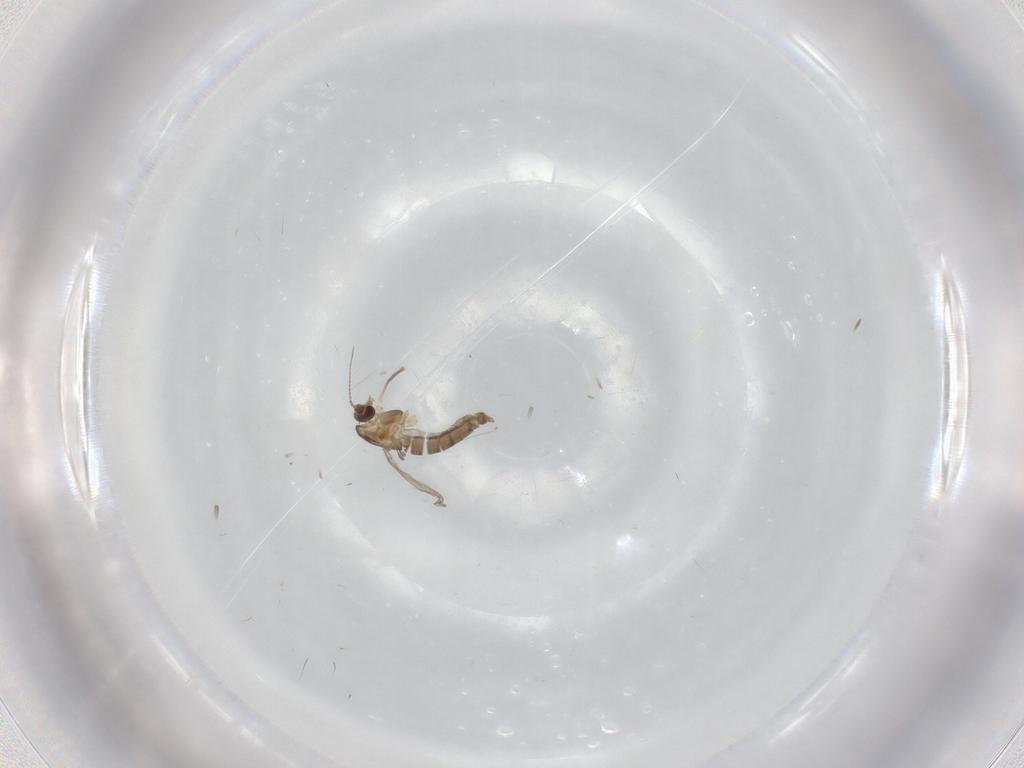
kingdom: Animalia
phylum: Arthropoda
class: Insecta
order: Diptera
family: Cecidomyiidae
